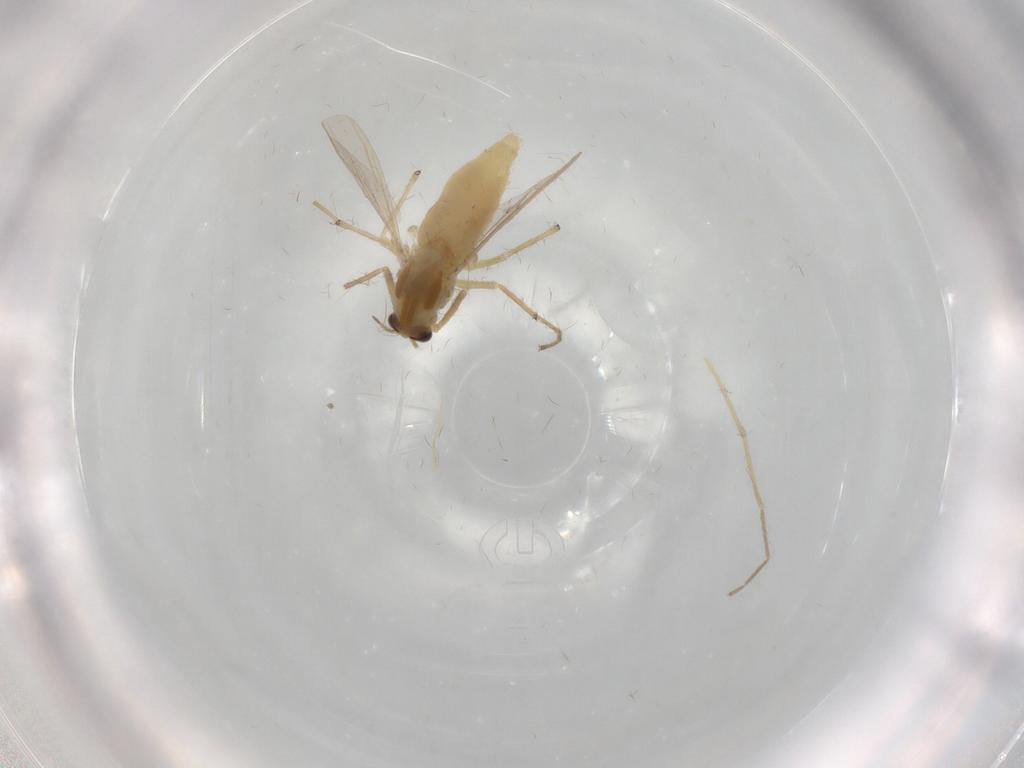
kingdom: Animalia
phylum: Arthropoda
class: Insecta
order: Diptera
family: Chironomidae
